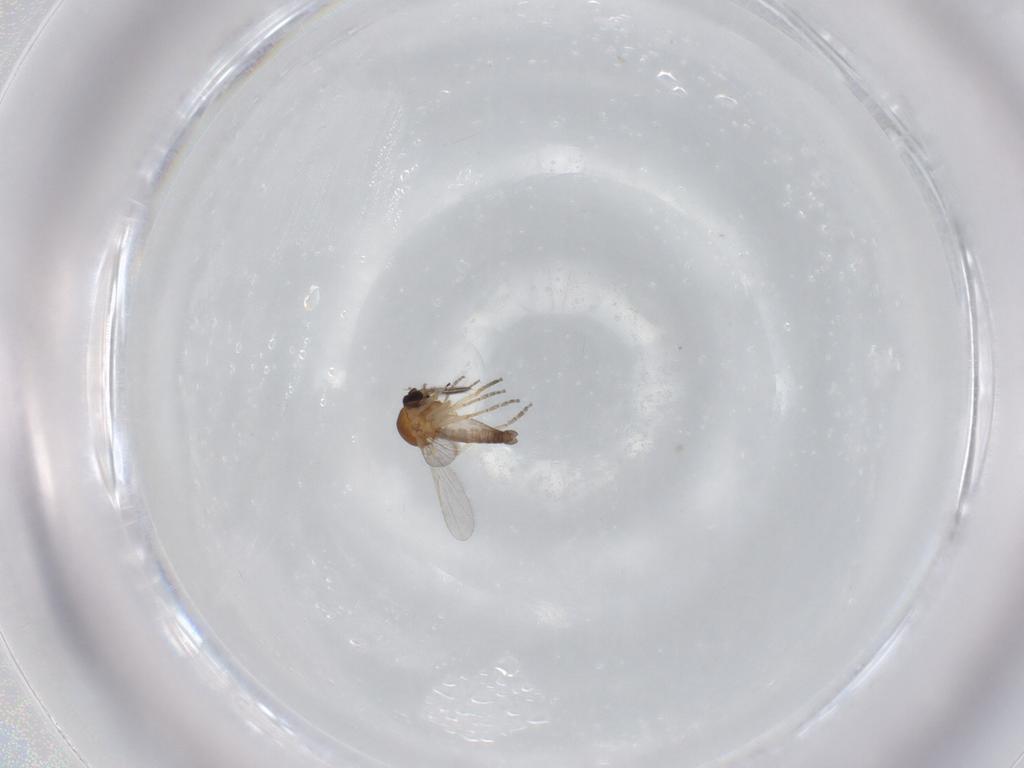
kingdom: Animalia
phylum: Arthropoda
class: Insecta
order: Diptera
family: Ceratopogonidae
